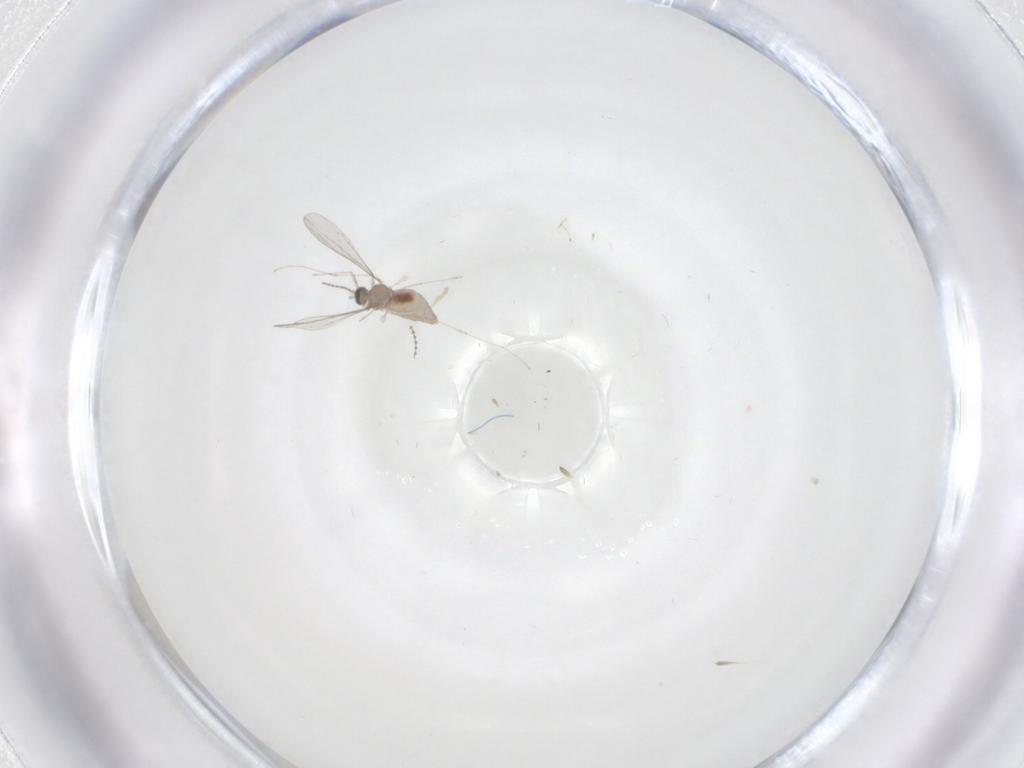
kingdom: Animalia
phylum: Arthropoda
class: Insecta
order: Diptera
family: Cecidomyiidae
